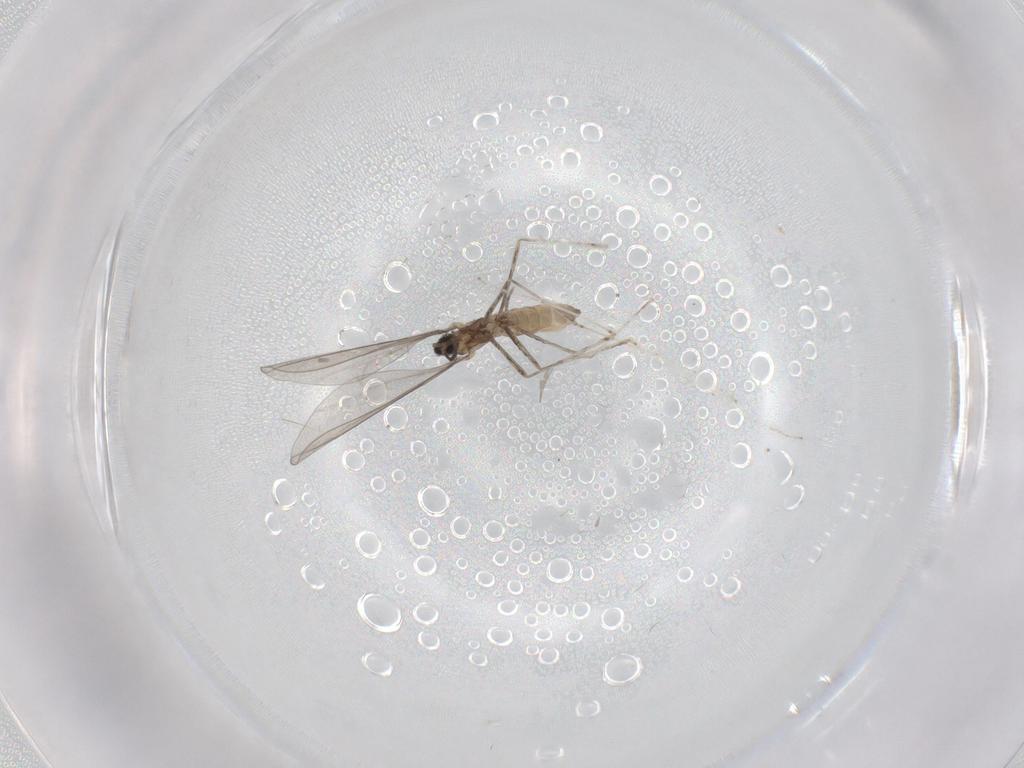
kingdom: Animalia
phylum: Arthropoda
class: Insecta
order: Diptera
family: Cecidomyiidae
